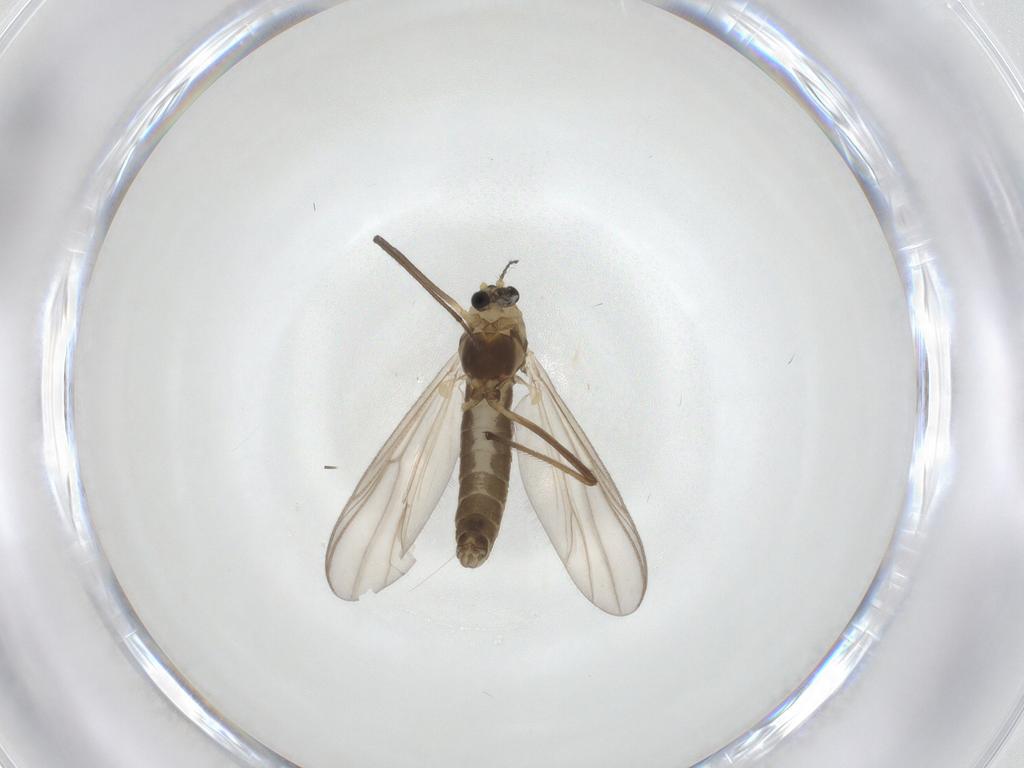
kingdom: Animalia
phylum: Arthropoda
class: Insecta
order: Diptera
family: Chironomidae
